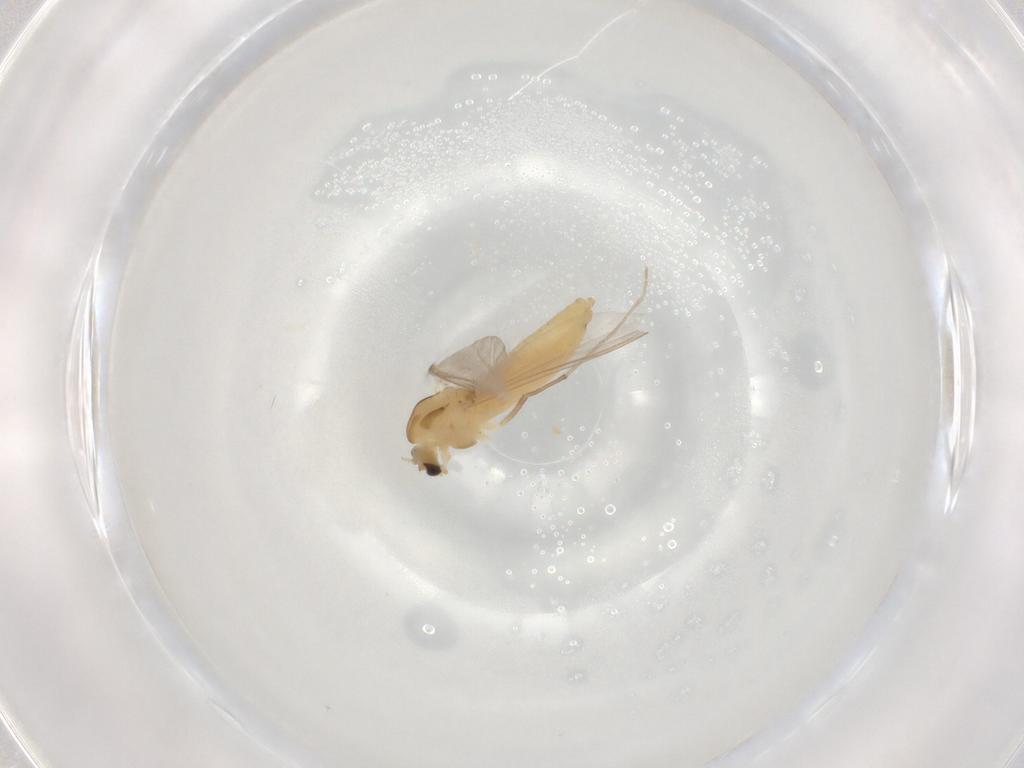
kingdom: Animalia
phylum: Arthropoda
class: Insecta
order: Diptera
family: Chironomidae
